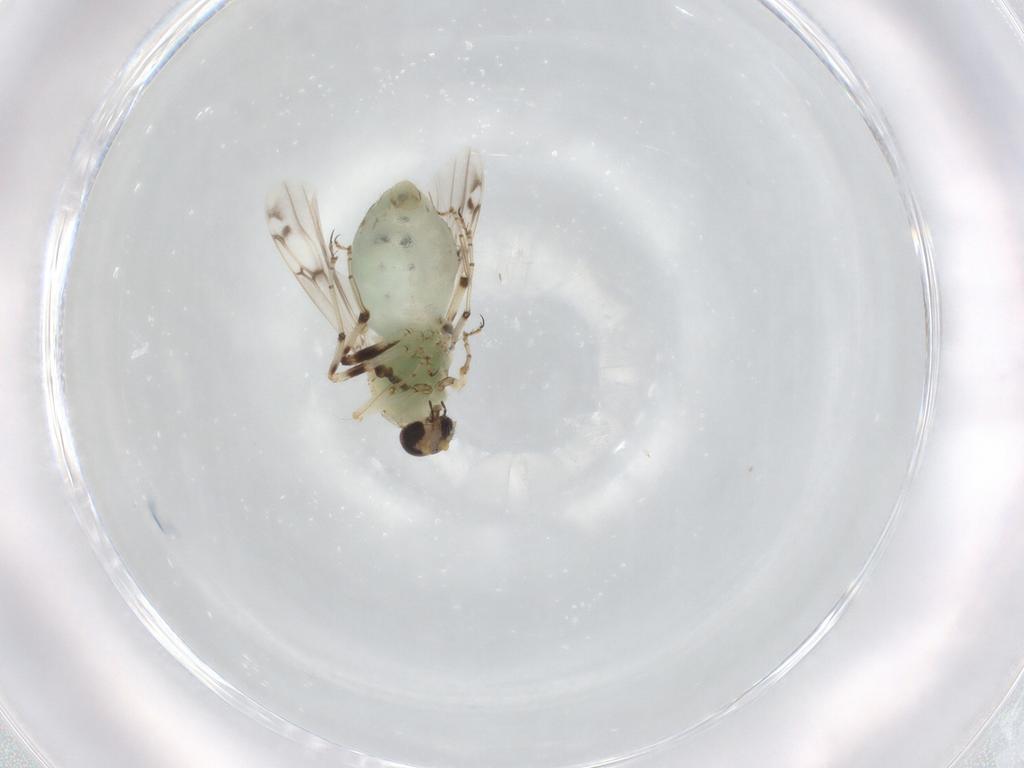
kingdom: Animalia
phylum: Arthropoda
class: Insecta
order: Diptera
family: Ceratopogonidae
